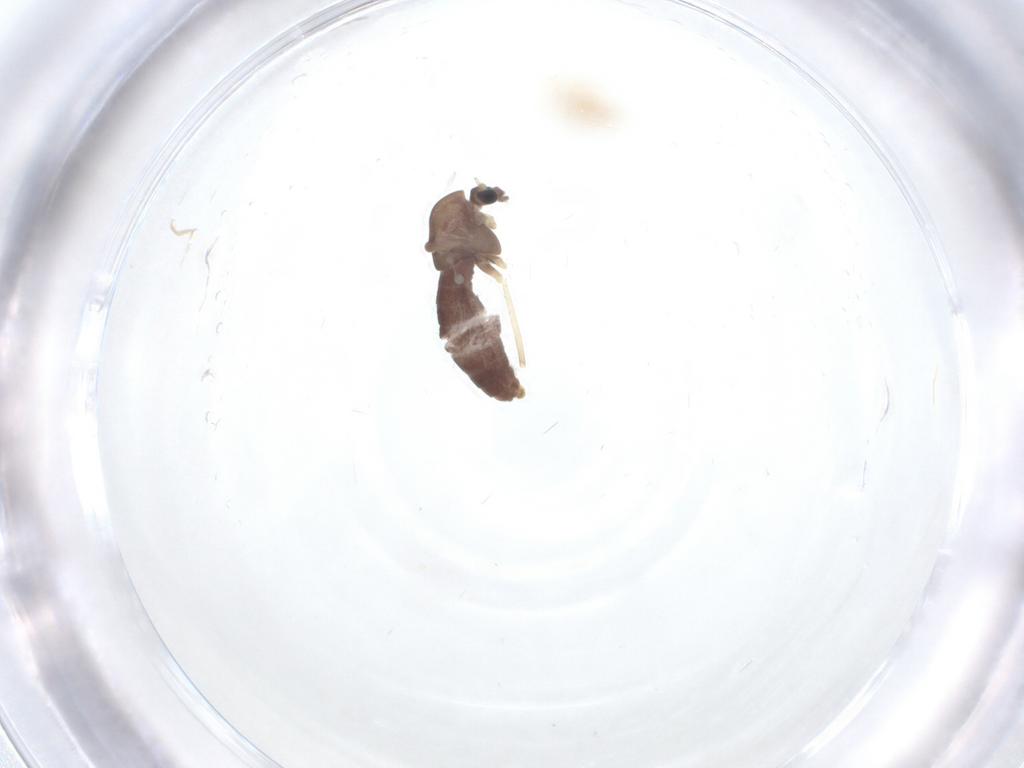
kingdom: Animalia
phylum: Arthropoda
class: Insecta
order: Diptera
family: Chironomidae
